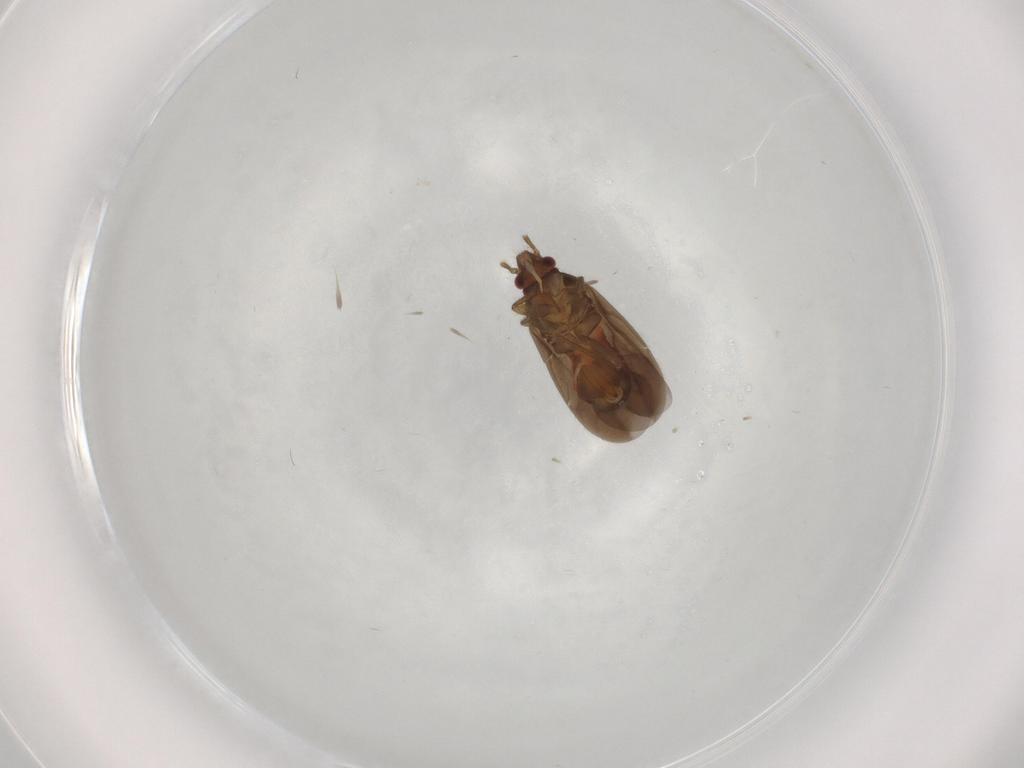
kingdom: Animalia
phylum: Arthropoda
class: Insecta
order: Hemiptera
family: Ceratocombidae
